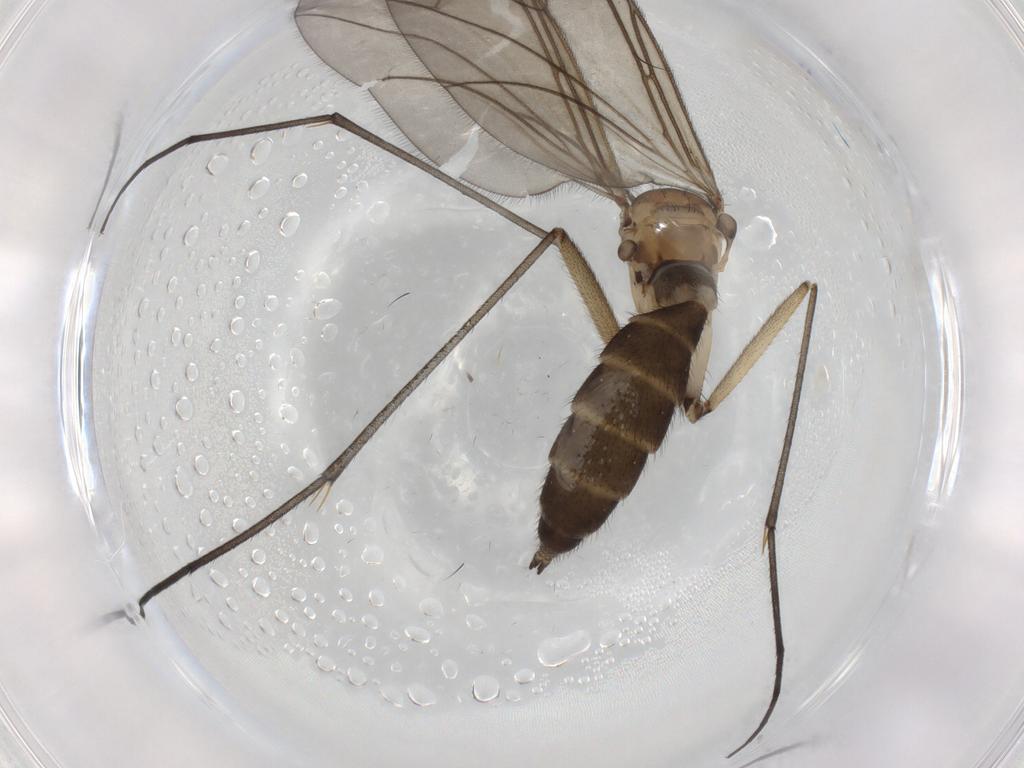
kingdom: Animalia
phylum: Arthropoda
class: Insecta
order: Diptera
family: Sciaridae
